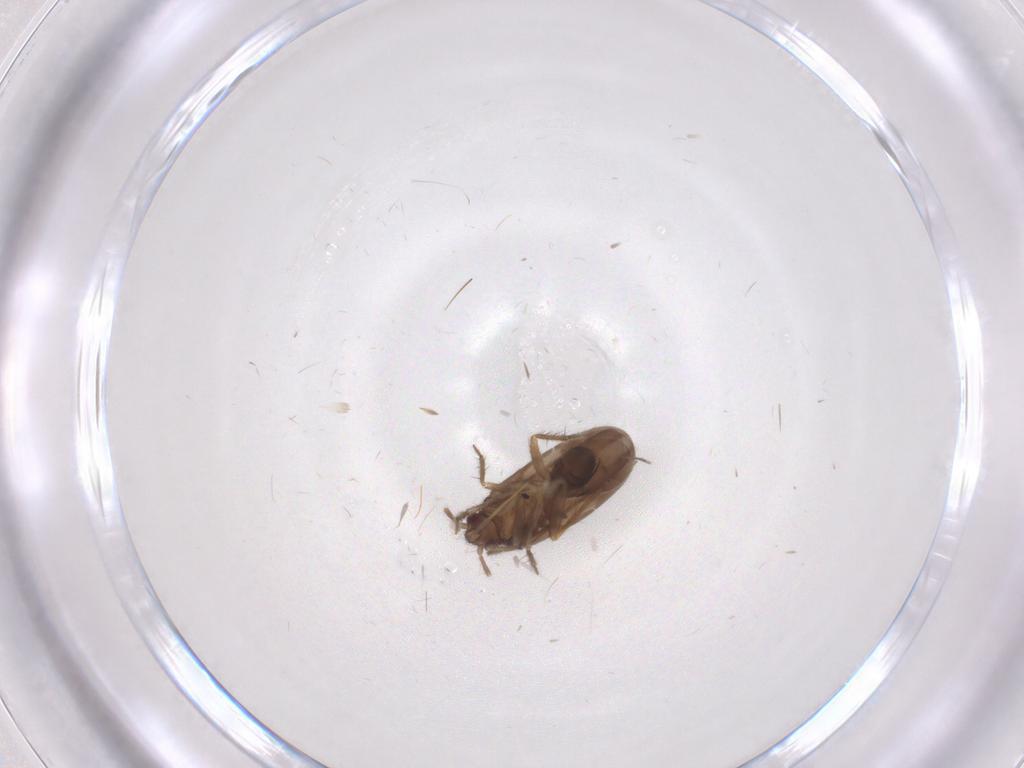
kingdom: Animalia
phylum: Arthropoda
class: Insecta
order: Hemiptera
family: Ceratocombidae
